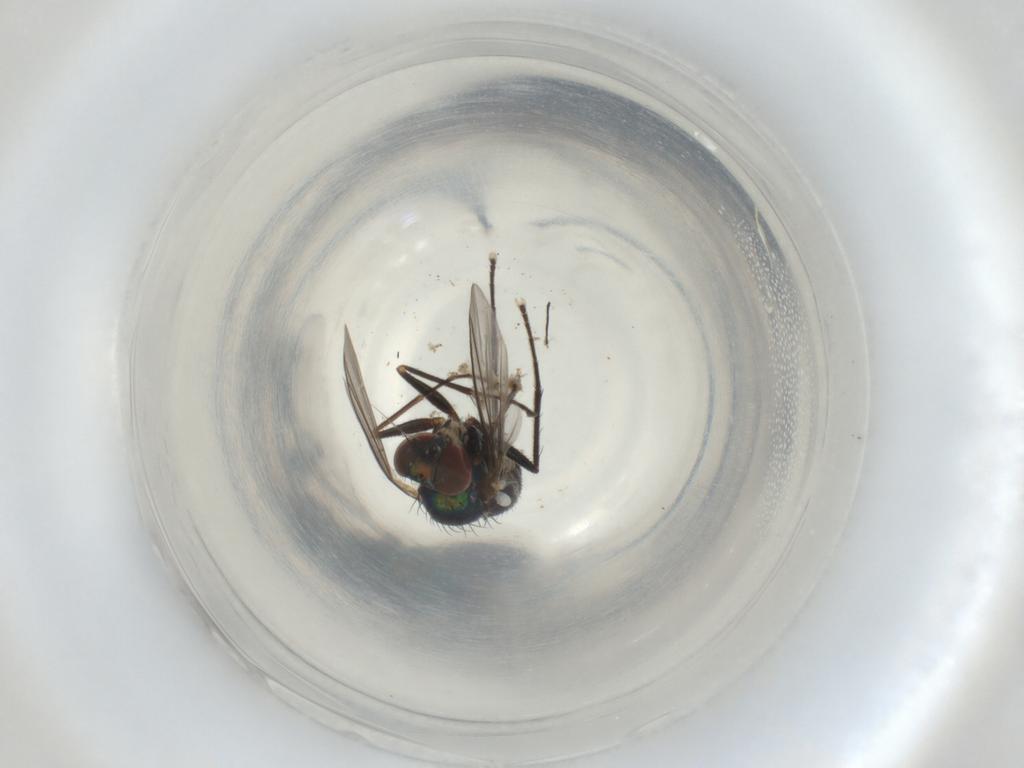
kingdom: Animalia
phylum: Arthropoda
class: Insecta
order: Diptera
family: Dolichopodidae
